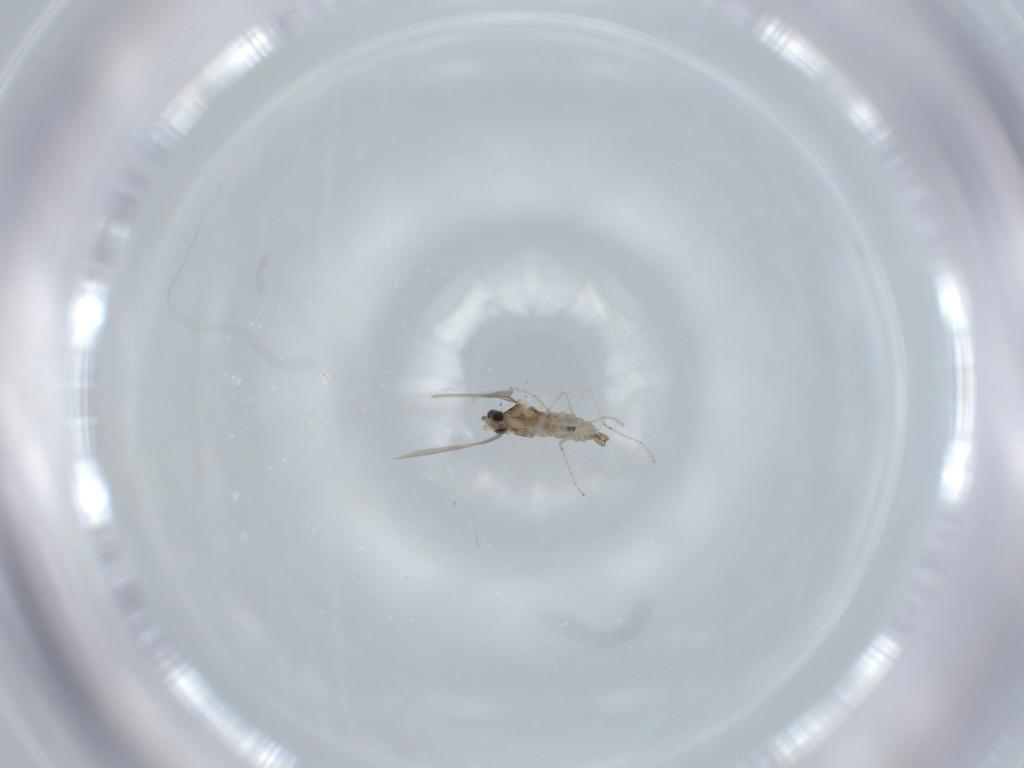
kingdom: Animalia
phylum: Arthropoda
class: Insecta
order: Diptera
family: Cecidomyiidae
